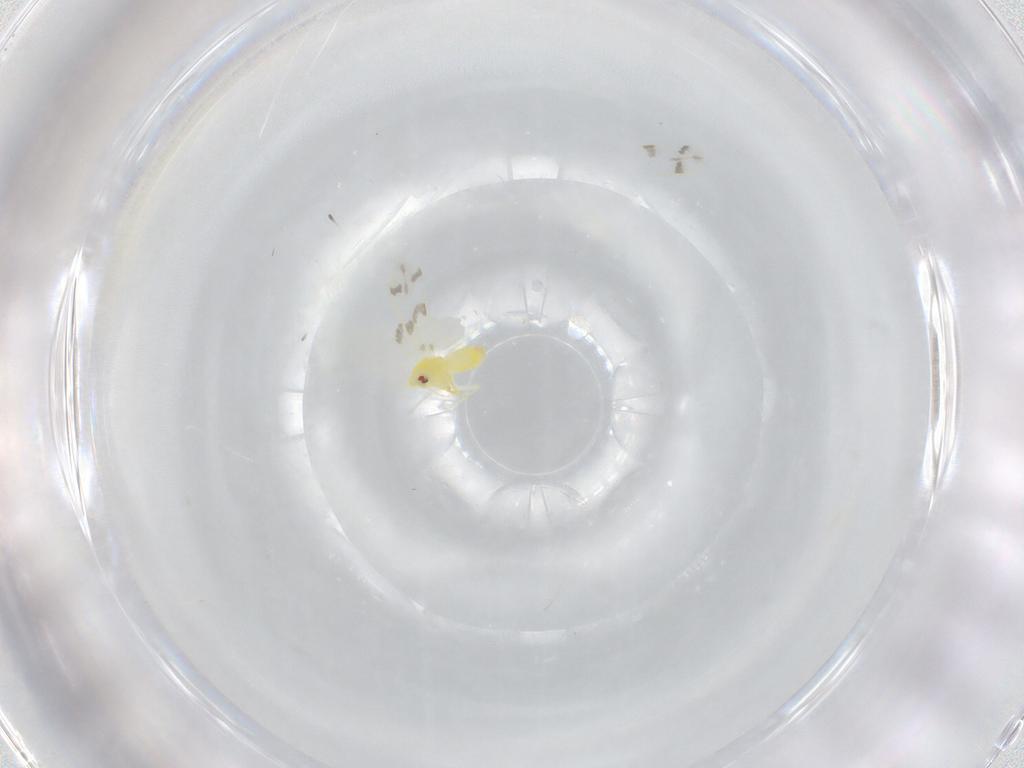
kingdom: Animalia
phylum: Arthropoda
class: Insecta
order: Hemiptera
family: Aleyrodidae
